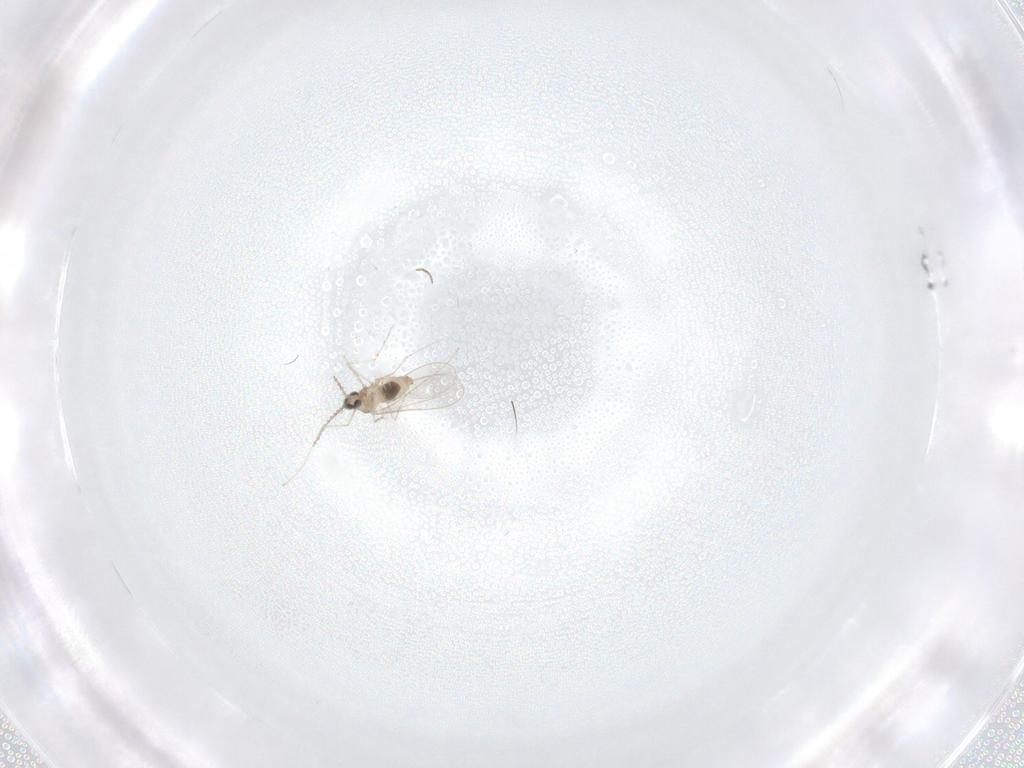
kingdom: Animalia
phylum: Arthropoda
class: Insecta
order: Diptera
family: Cecidomyiidae
